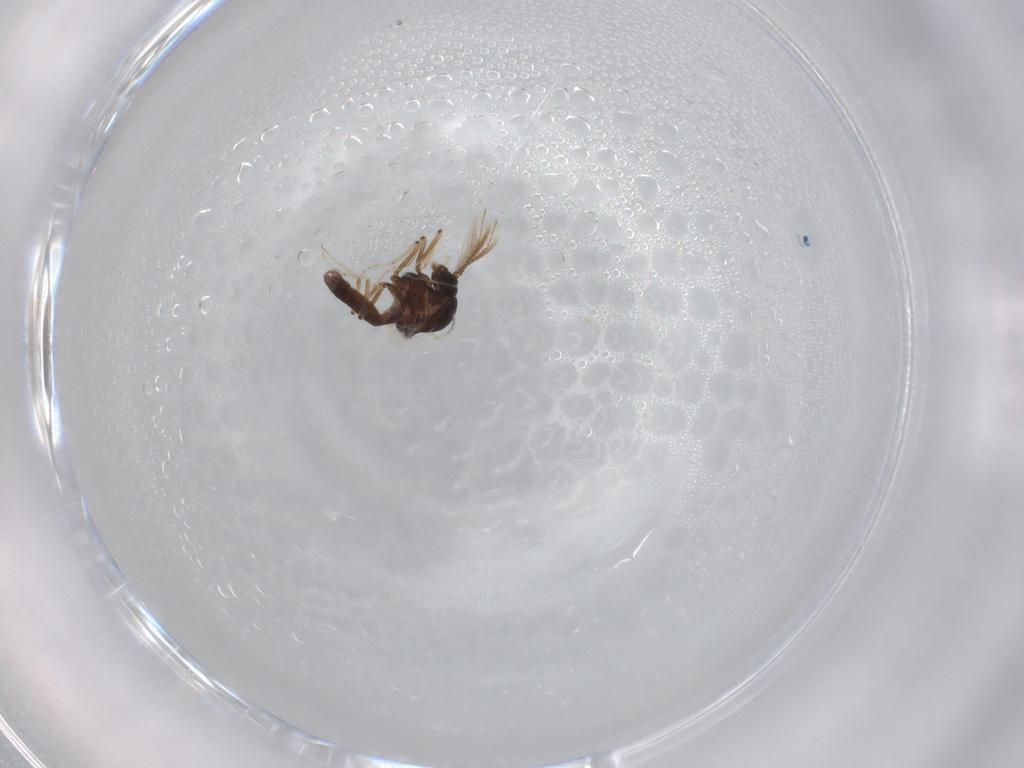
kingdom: Animalia
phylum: Arthropoda
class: Insecta
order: Diptera
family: Ceratopogonidae
